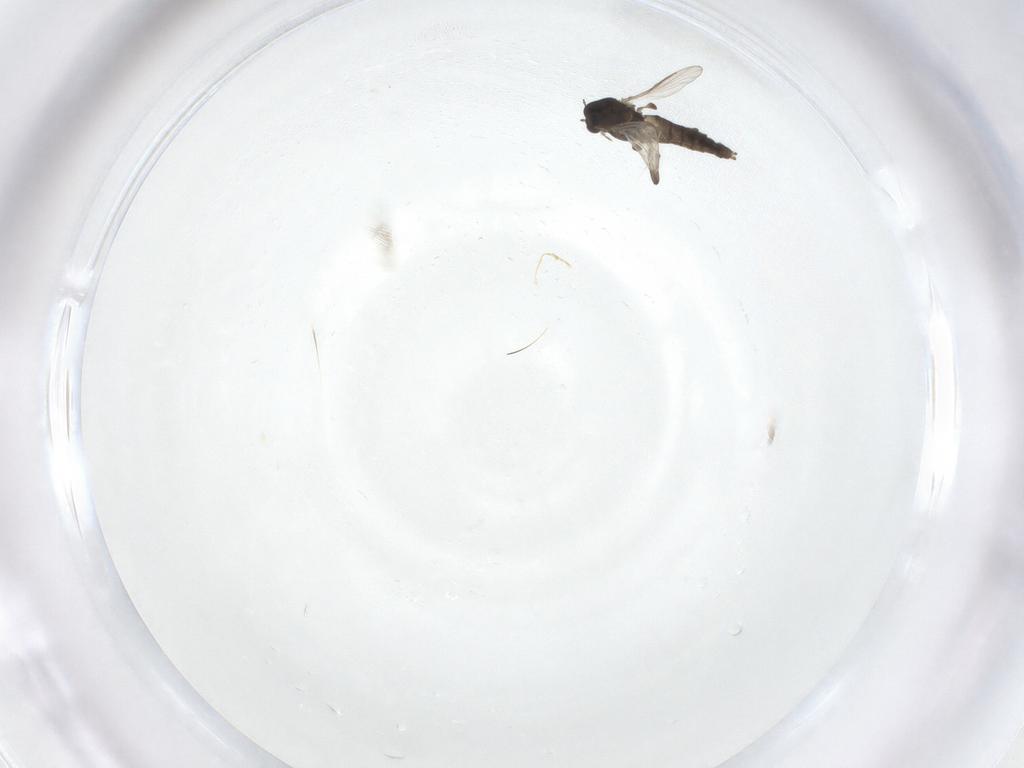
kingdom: Animalia
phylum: Arthropoda
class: Insecta
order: Diptera
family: Chironomidae
